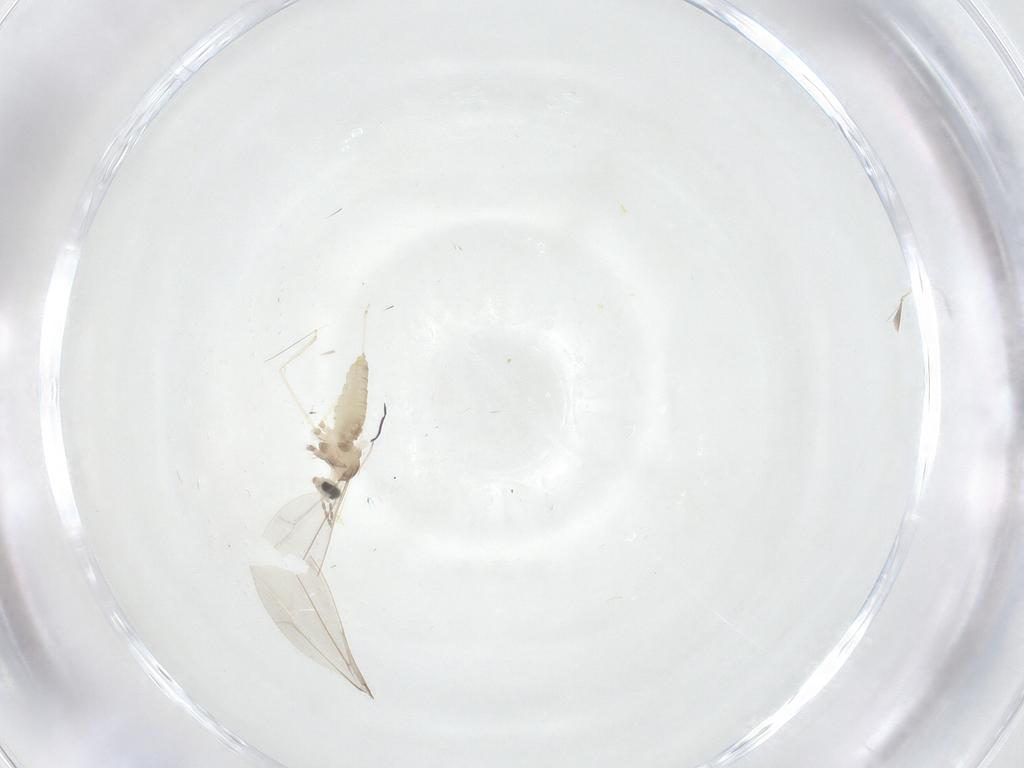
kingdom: Animalia
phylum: Arthropoda
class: Insecta
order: Diptera
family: Cecidomyiidae
